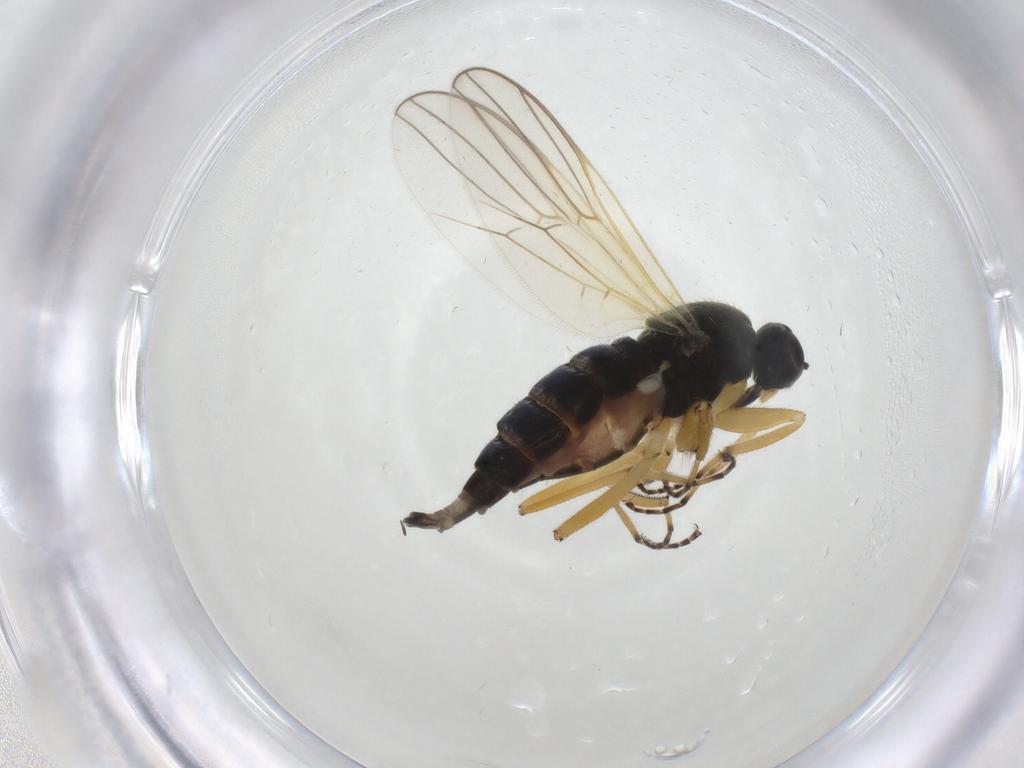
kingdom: Animalia
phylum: Arthropoda
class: Insecta
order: Diptera
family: Hybotidae
